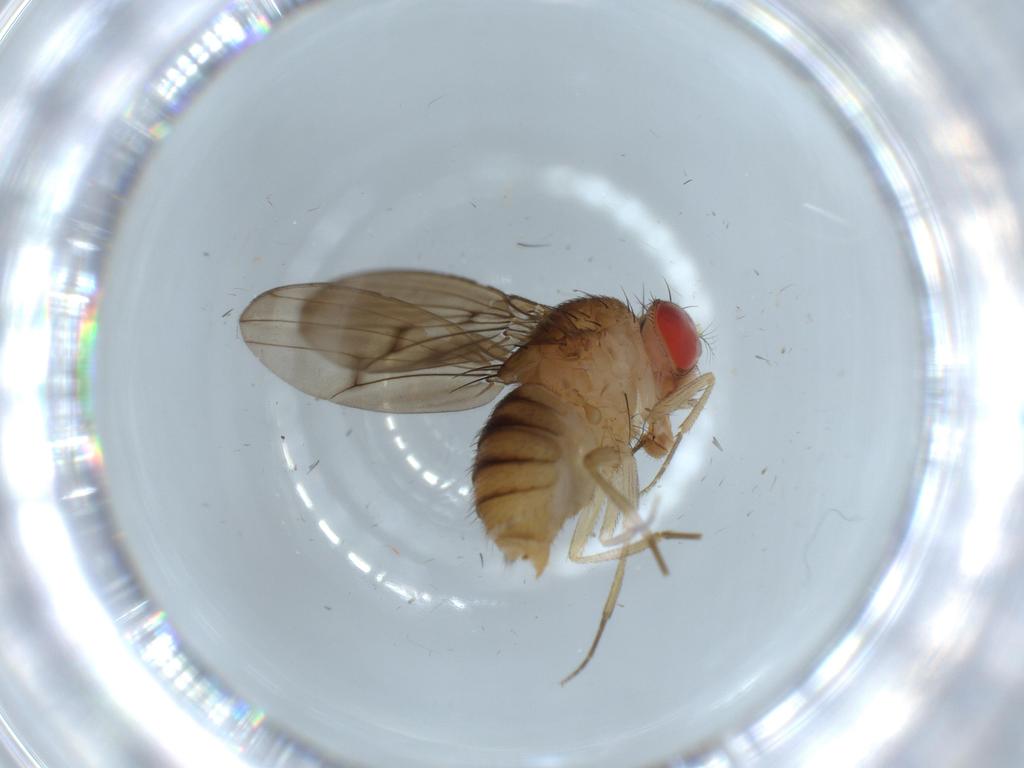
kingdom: Animalia
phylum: Arthropoda
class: Insecta
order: Diptera
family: Drosophilidae
